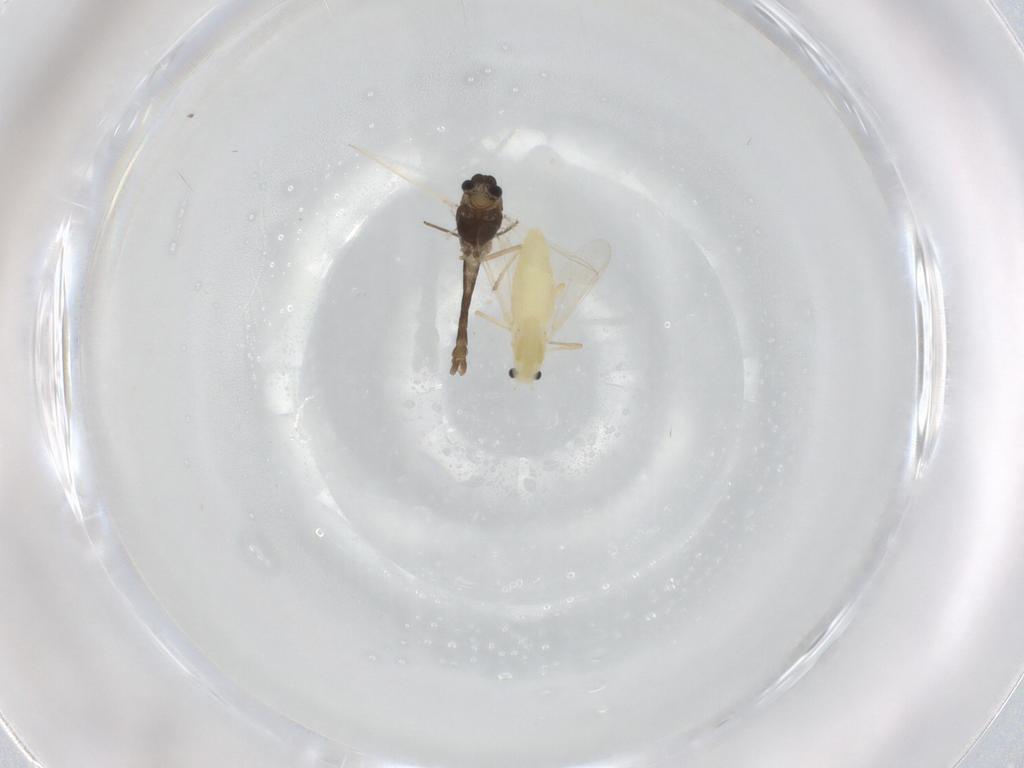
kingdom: Animalia
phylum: Arthropoda
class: Insecta
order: Diptera
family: Chironomidae
